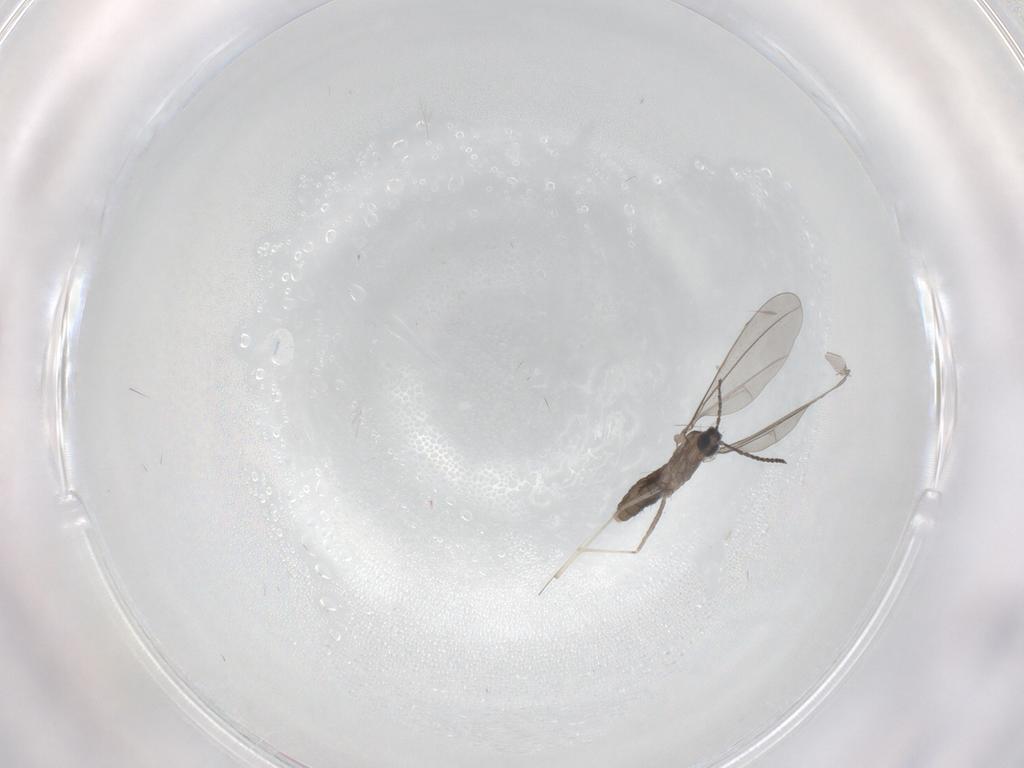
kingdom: Animalia
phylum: Arthropoda
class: Insecta
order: Diptera
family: Cecidomyiidae
